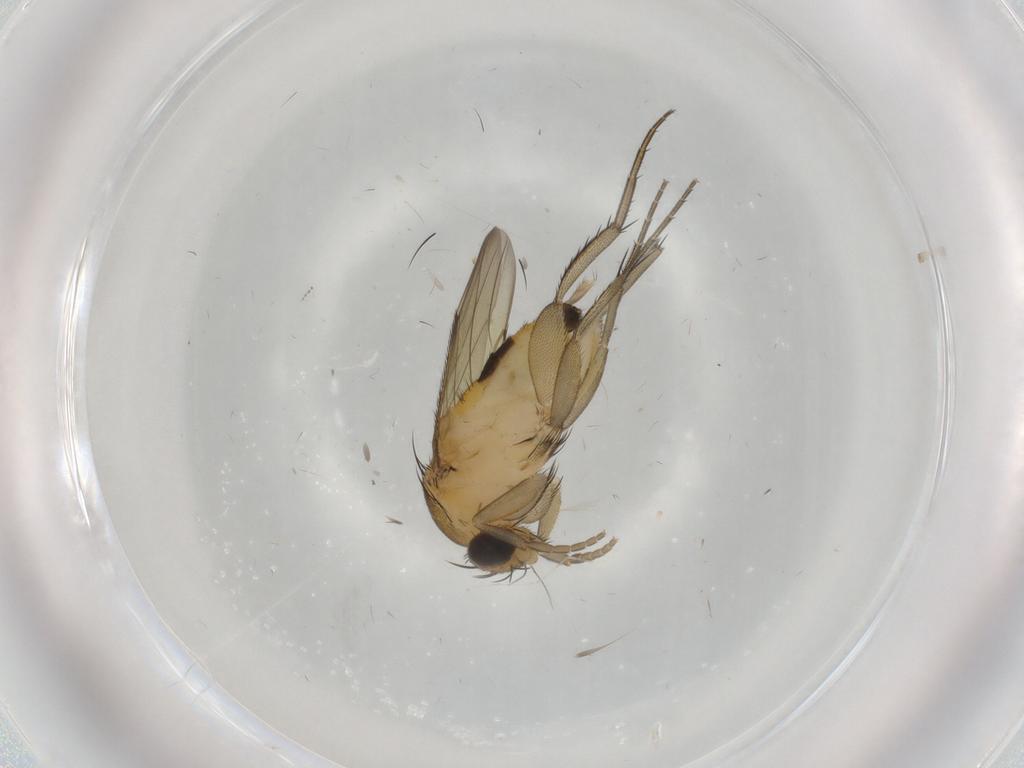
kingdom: Animalia
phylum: Arthropoda
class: Insecta
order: Diptera
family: Phoridae
